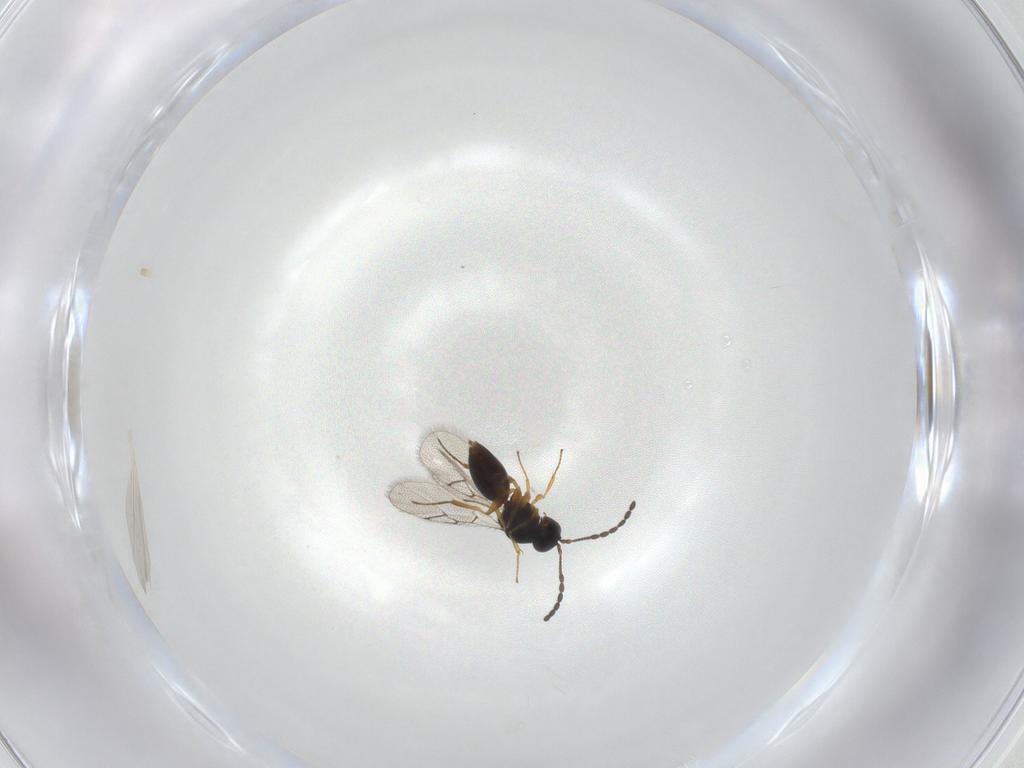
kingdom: Animalia
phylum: Arthropoda
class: Insecta
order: Hymenoptera
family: Figitidae
